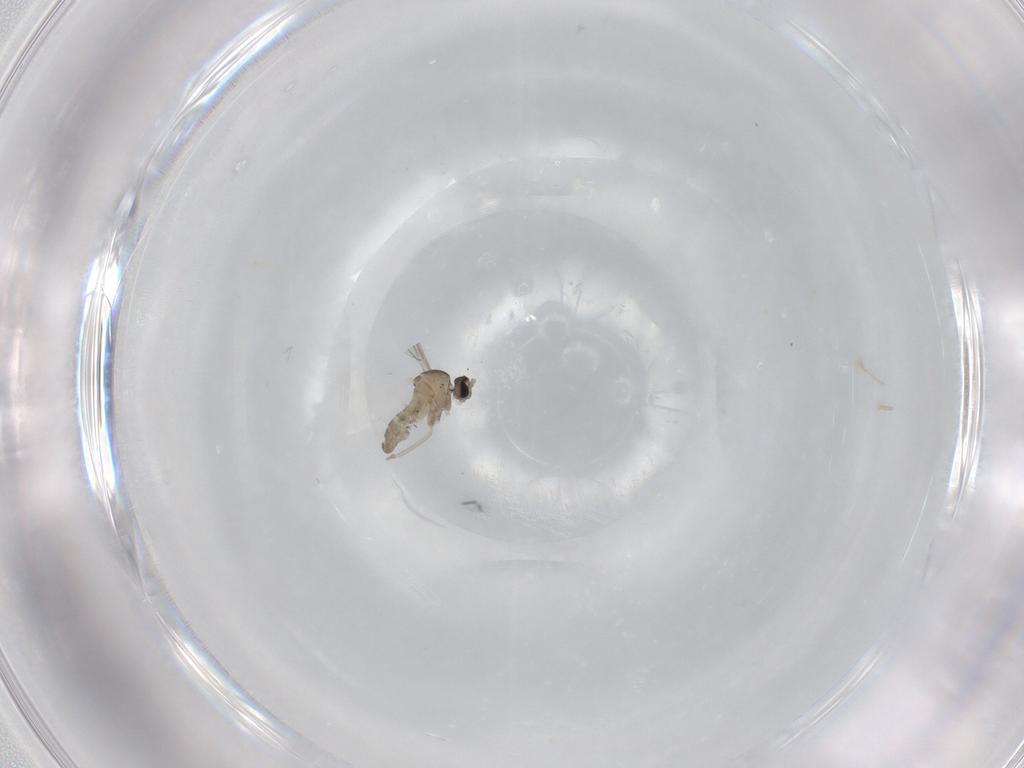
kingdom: Animalia
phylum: Arthropoda
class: Insecta
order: Diptera
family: Cecidomyiidae
